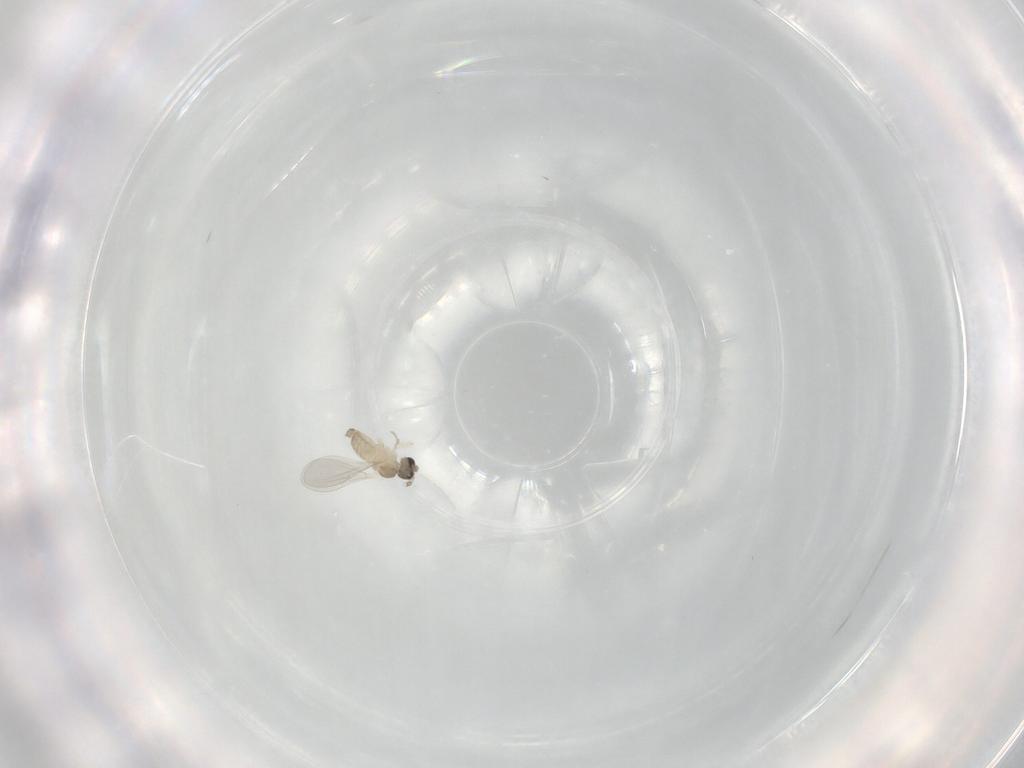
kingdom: Animalia
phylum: Arthropoda
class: Insecta
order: Diptera
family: Cecidomyiidae
